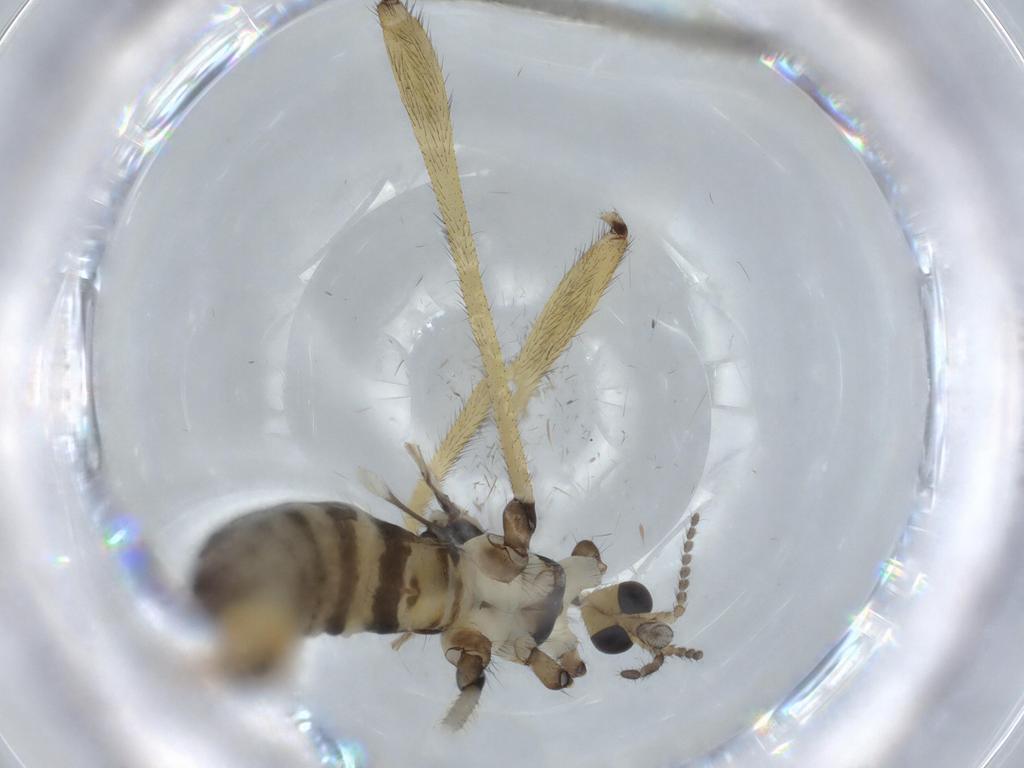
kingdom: Animalia
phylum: Arthropoda
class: Insecta
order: Diptera
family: Limoniidae
